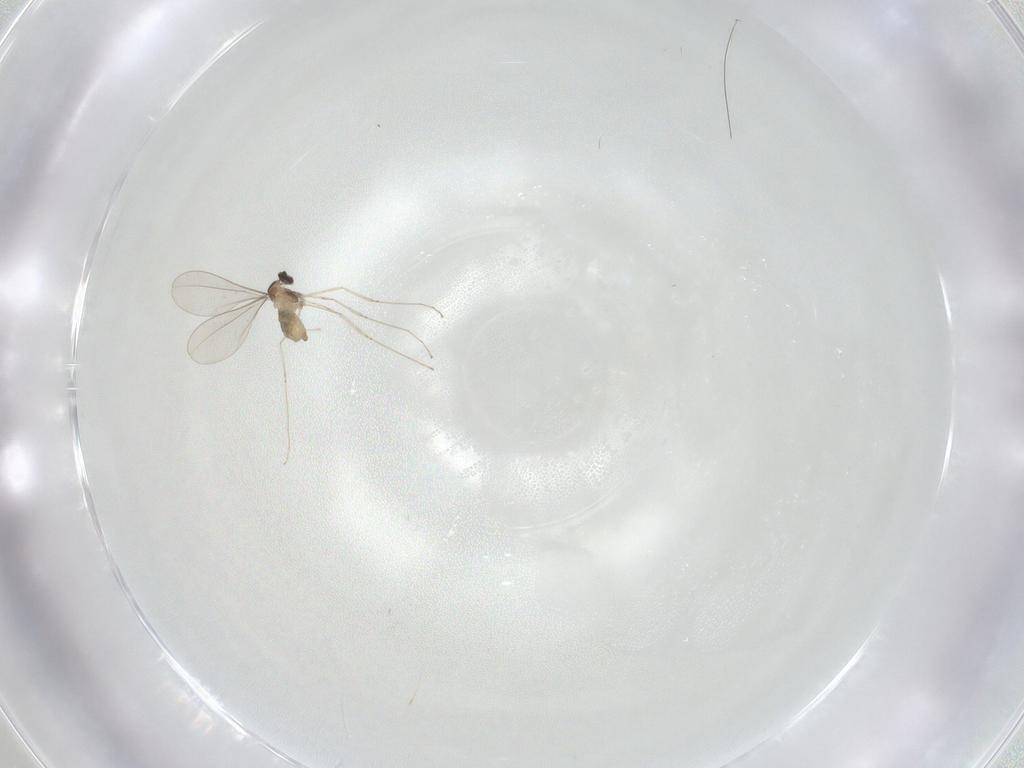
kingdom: Animalia
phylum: Arthropoda
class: Insecta
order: Diptera
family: Cecidomyiidae
